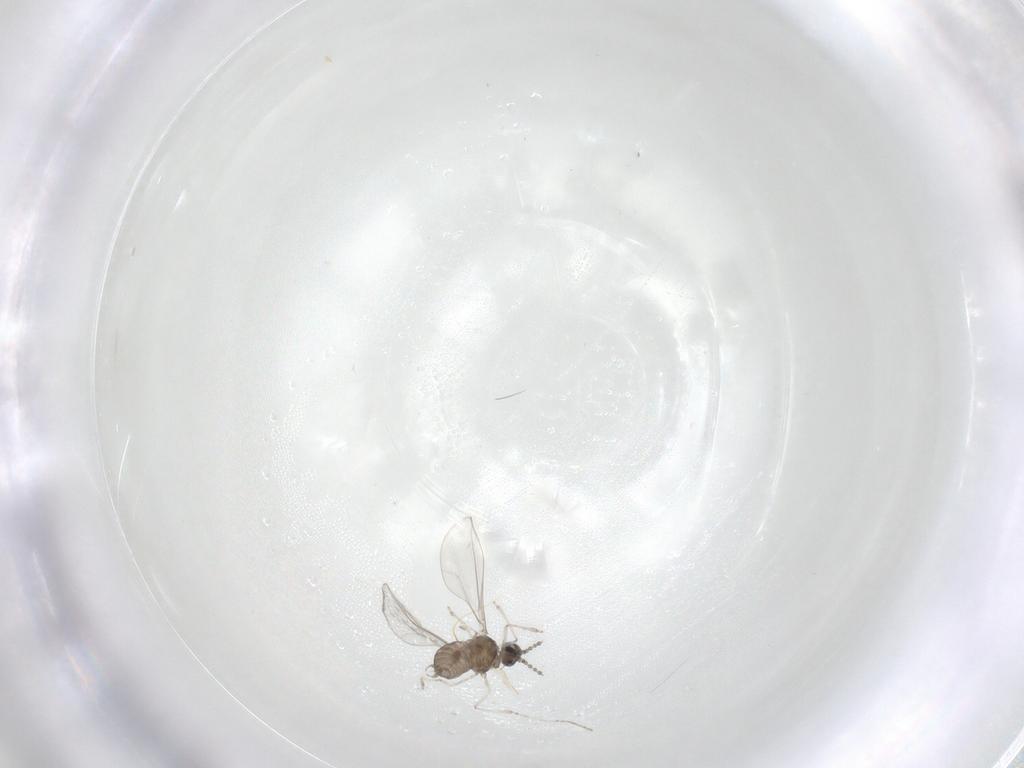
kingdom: Animalia
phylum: Arthropoda
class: Insecta
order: Diptera
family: Cecidomyiidae
